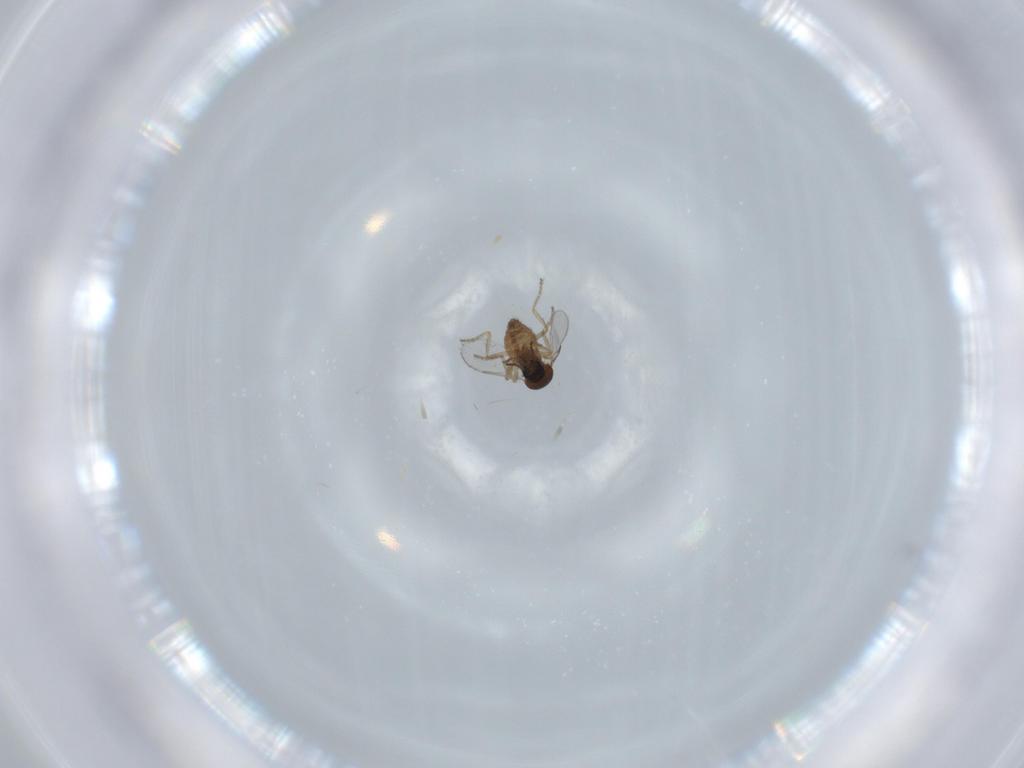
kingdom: Animalia
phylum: Arthropoda
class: Insecta
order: Diptera
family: Ceratopogonidae
